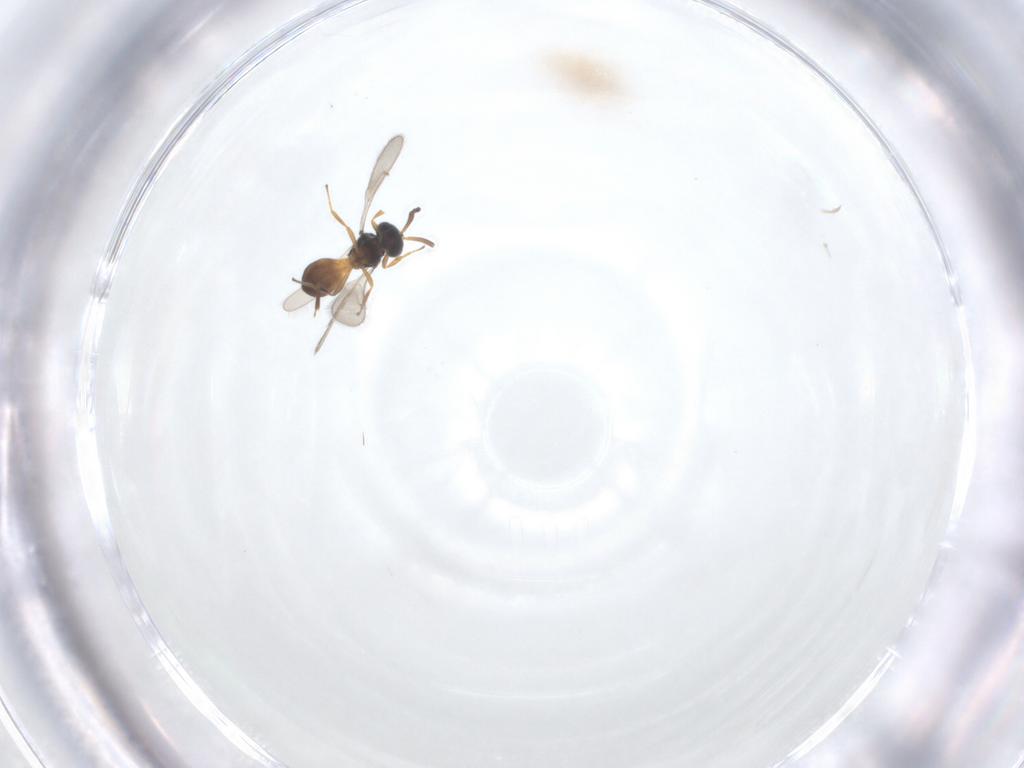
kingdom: Animalia
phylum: Arthropoda
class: Insecta
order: Hymenoptera
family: Scelionidae
